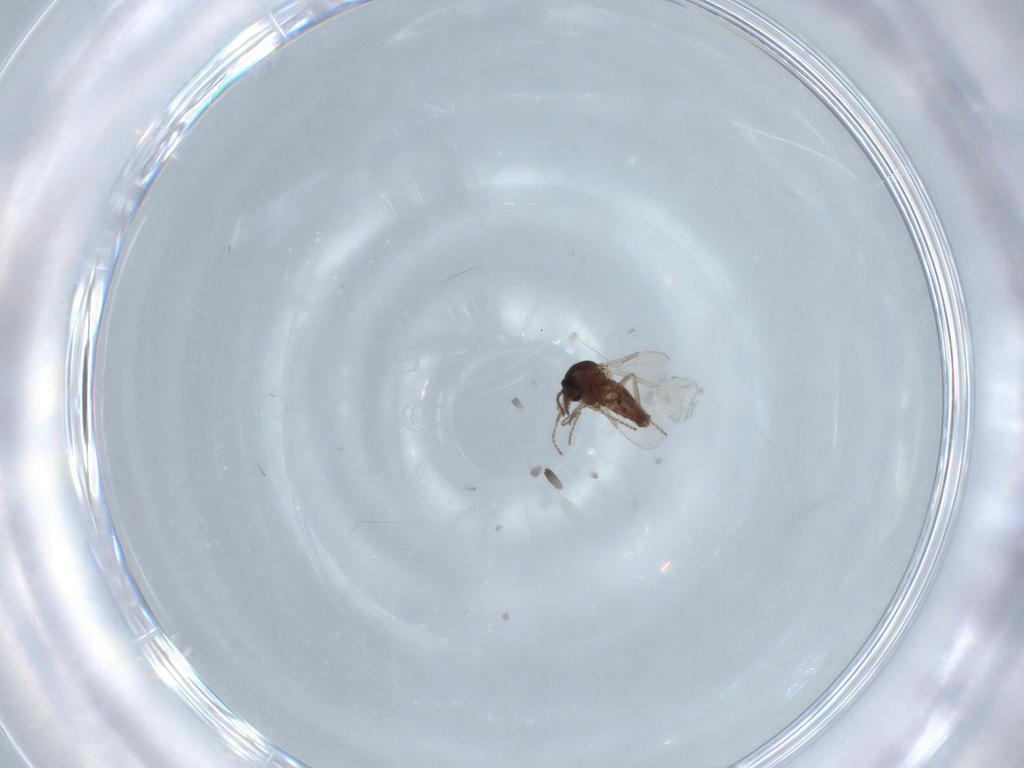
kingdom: Animalia
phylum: Arthropoda
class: Insecta
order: Diptera
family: Ceratopogonidae
